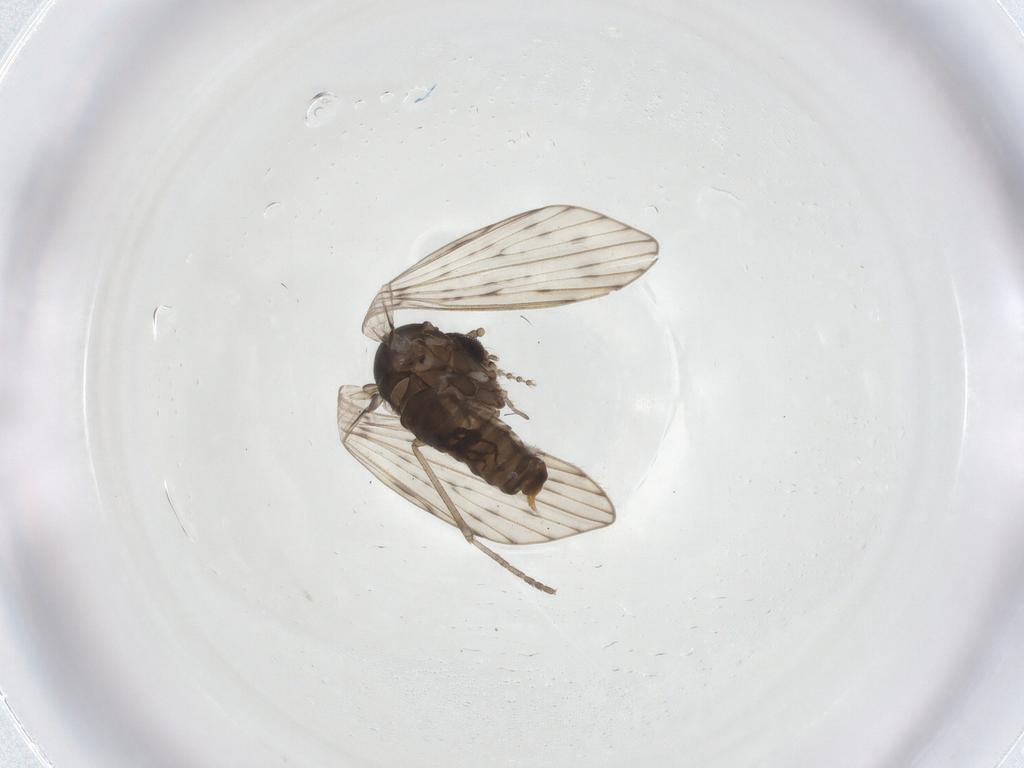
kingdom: Animalia
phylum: Arthropoda
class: Insecta
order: Diptera
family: Psychodidae
